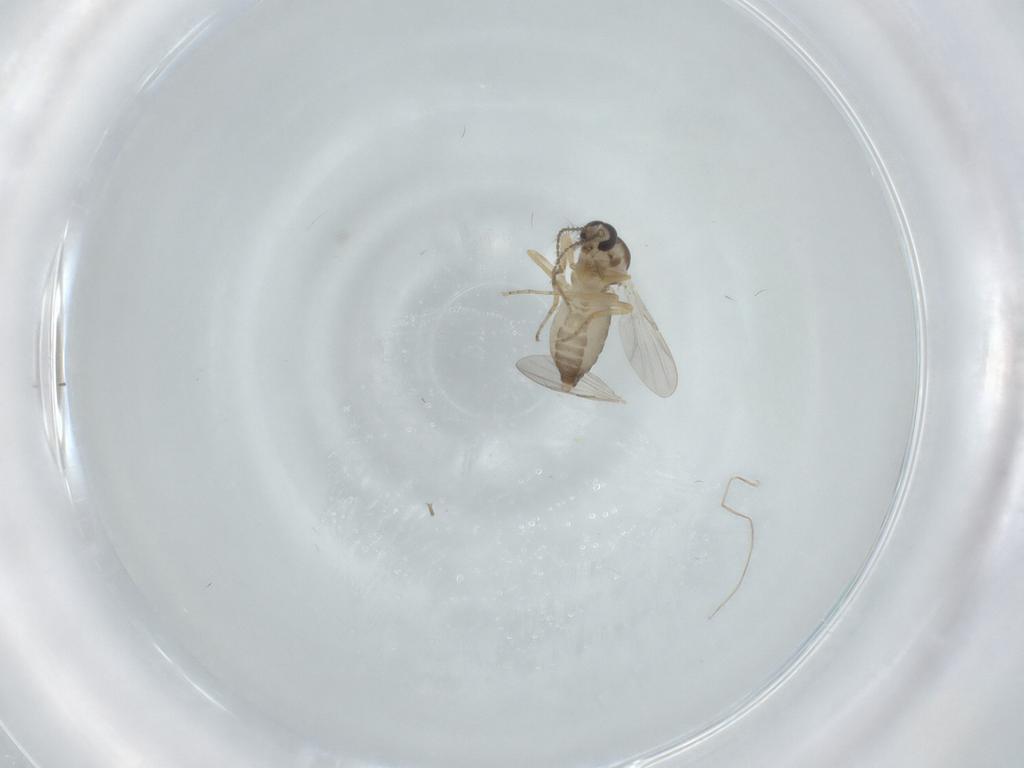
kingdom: Animalia
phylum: Arthropoda
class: Insecta
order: Diptera
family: Ceratopogonidae
